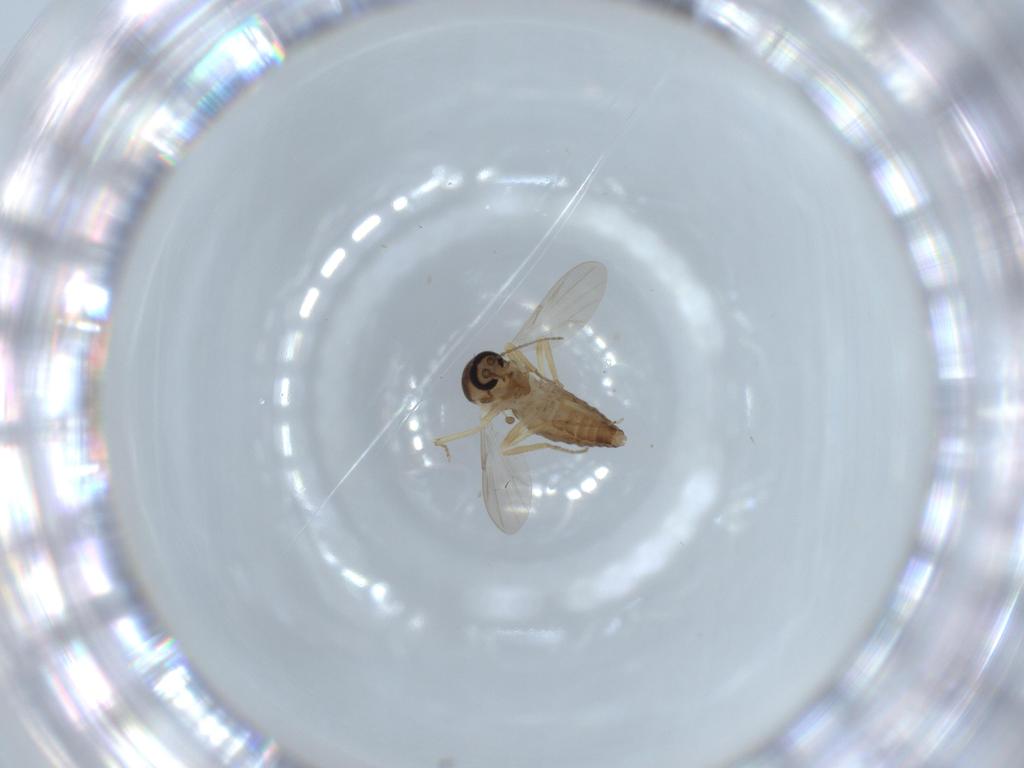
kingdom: Animalia
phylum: Arthropoda
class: Insecta
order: Diptera
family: Ceratopogonidae
